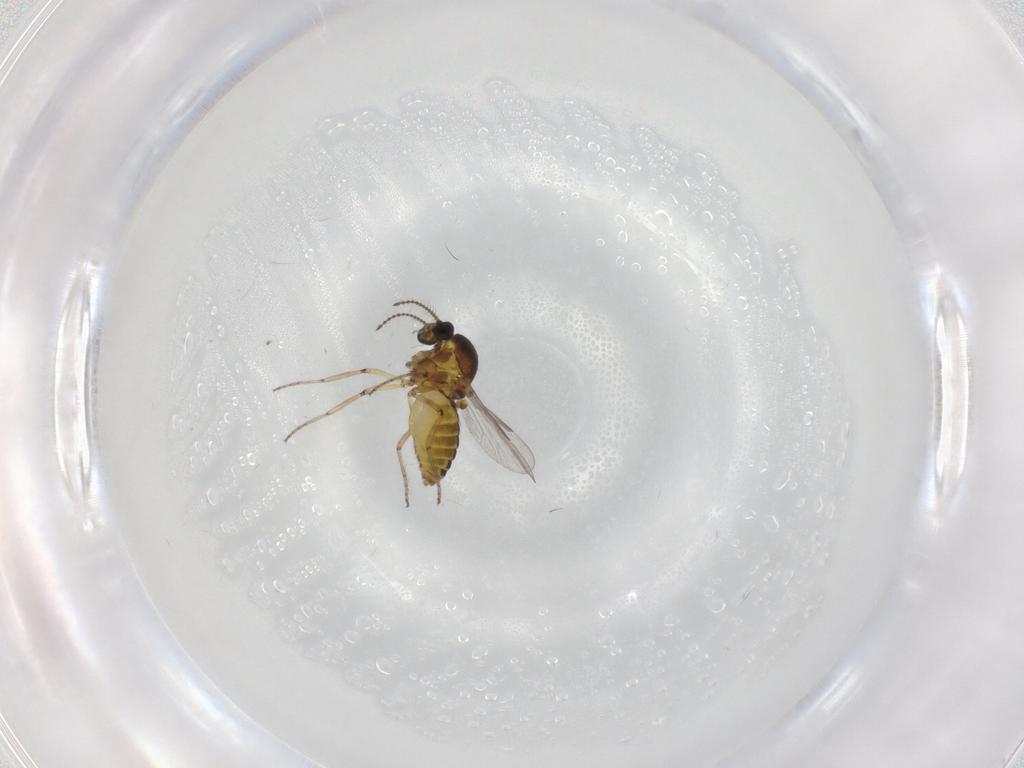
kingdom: Animalia
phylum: Arthropoda
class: Insecta
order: Diptera
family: Ceratopogonidae
